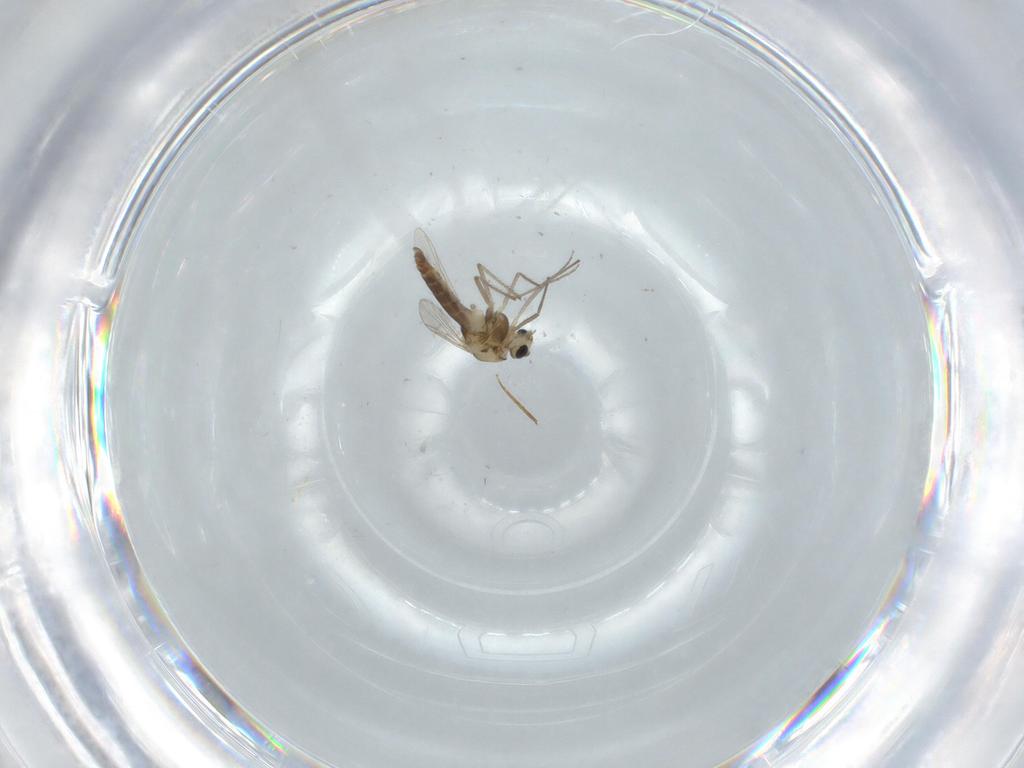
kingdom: Animalia
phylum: Arthropoda
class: Insecta
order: Diptera
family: Chironomidae
